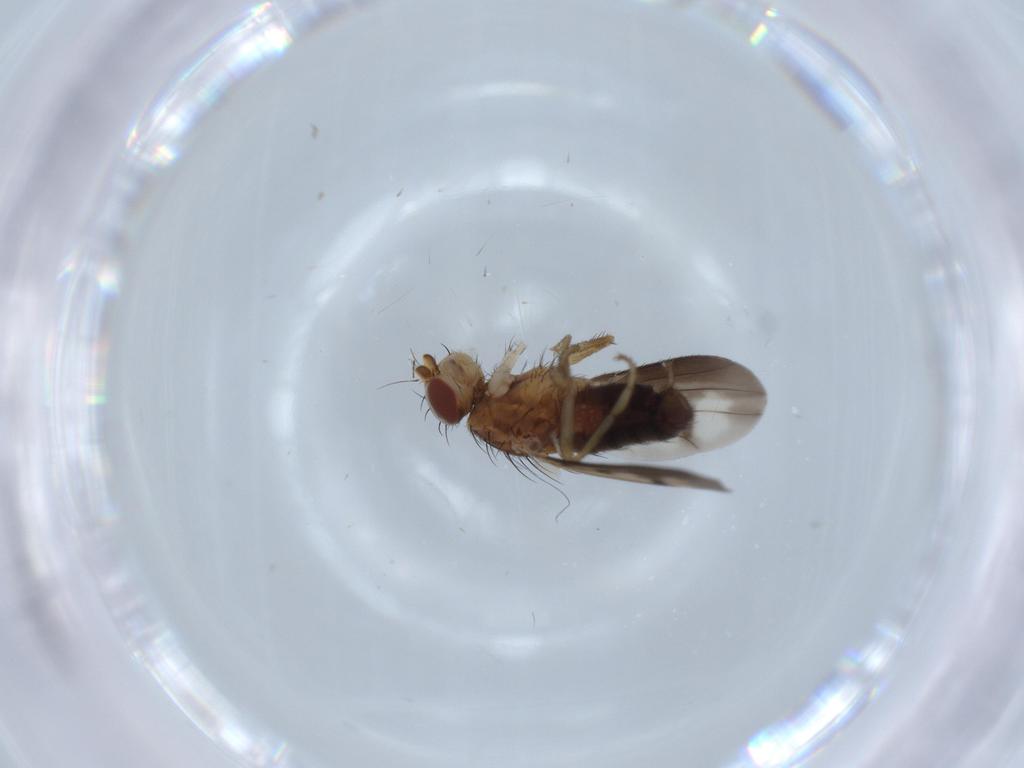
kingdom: Animalia
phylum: Arthropoda
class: Insecta
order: Diptera
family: Heleomyzidae
